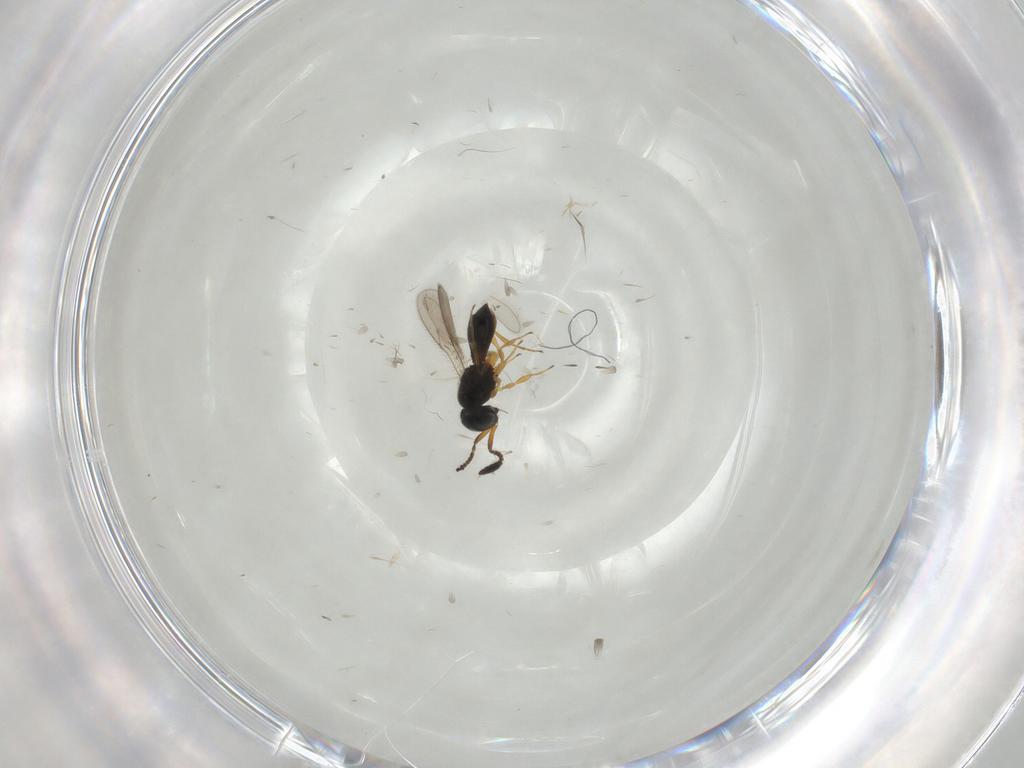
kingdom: Animalia
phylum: Arthropoda
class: Insecta
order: Hymenoptera
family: Scelionidae
